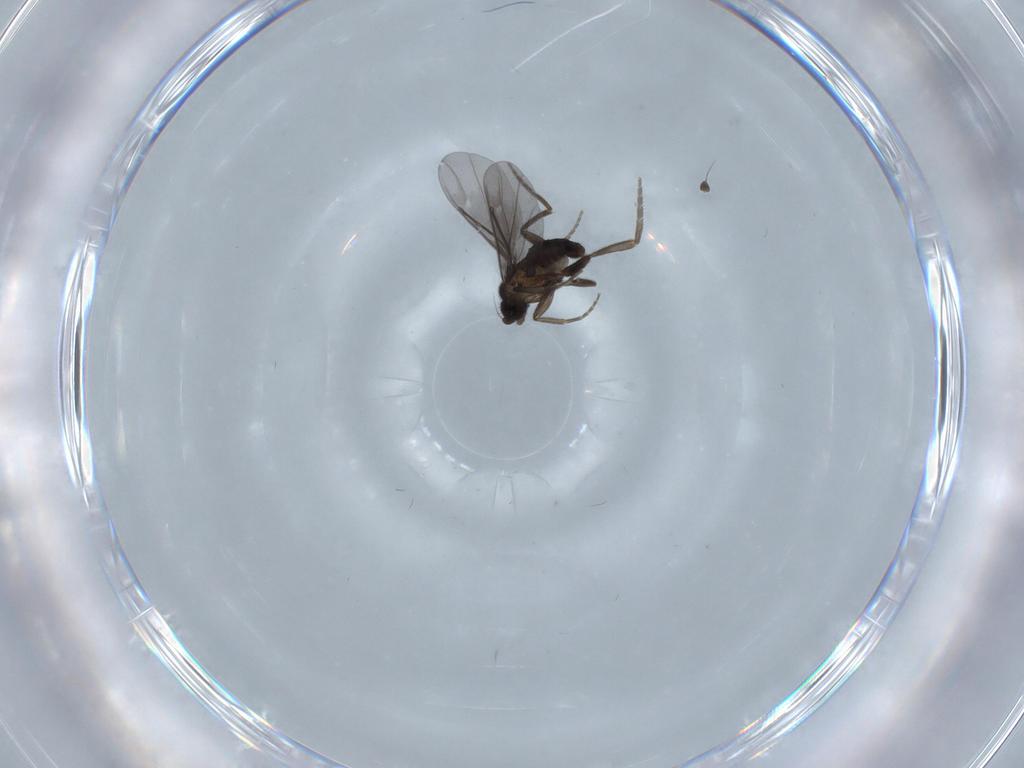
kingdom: Animalia
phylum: Arthropoda
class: Insecta
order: Diptera
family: Phoridae
